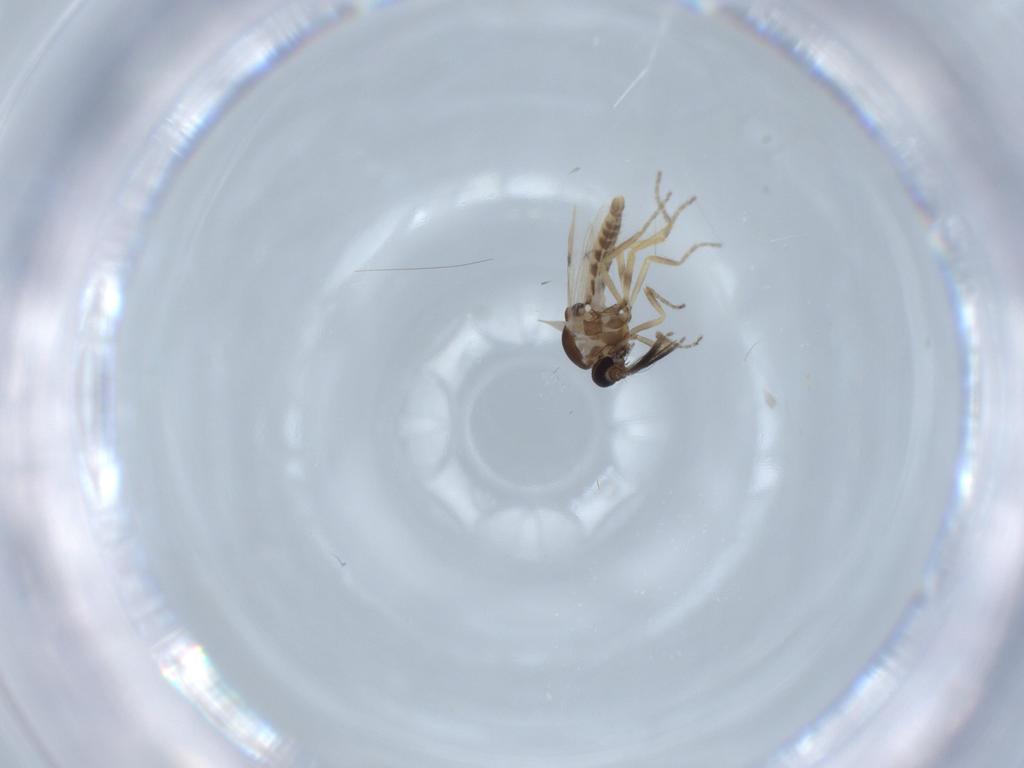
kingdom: Animalia
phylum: Arthropoda
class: Insecta
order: Diptera
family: Ceratopogonidae
